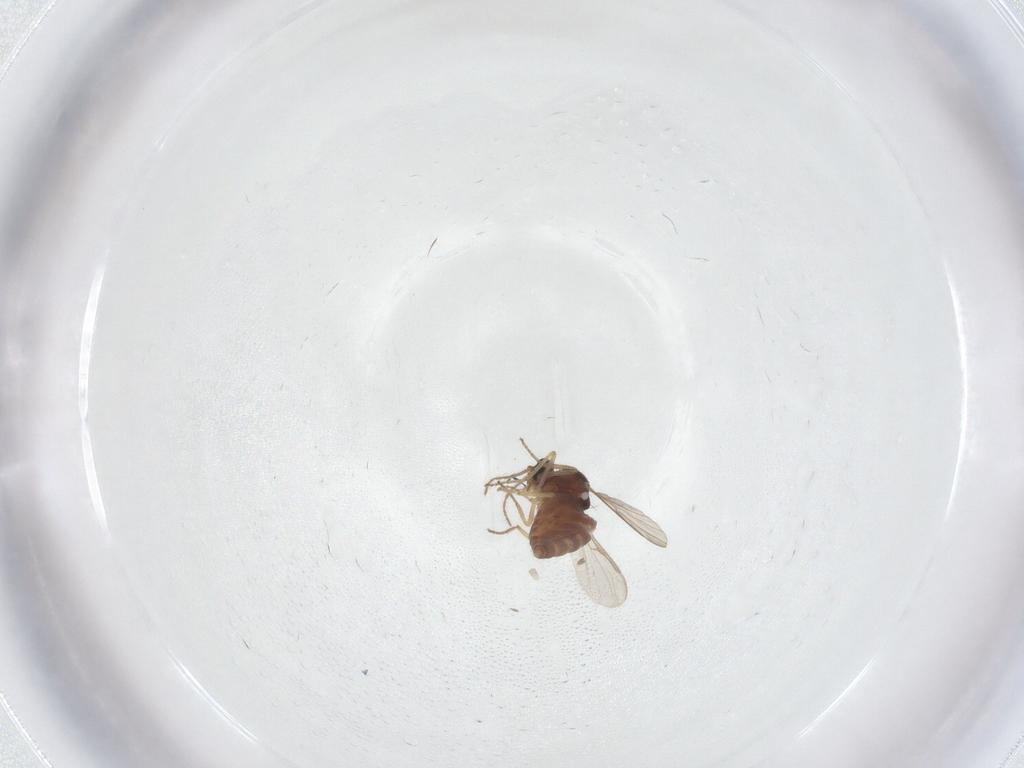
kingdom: Animalia
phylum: Arthropoda
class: Insecta
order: Diptera
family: Ceratopogonidae
